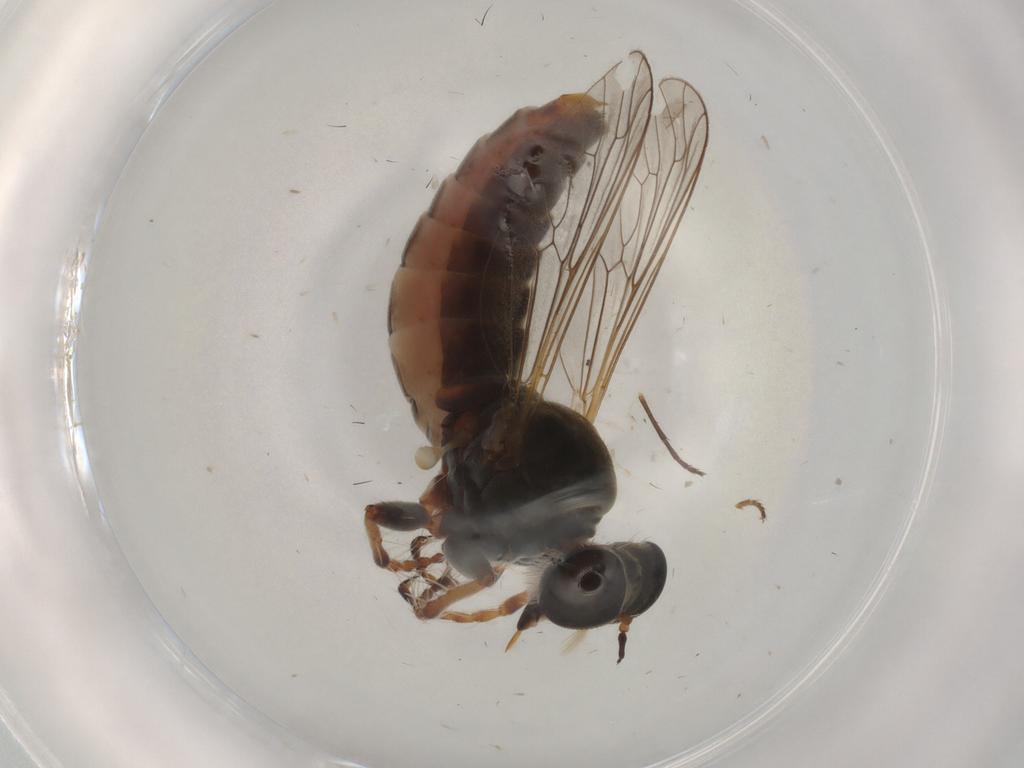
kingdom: Animalia
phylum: Arthropoda
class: Insecta
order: Diptera
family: Asilidae
